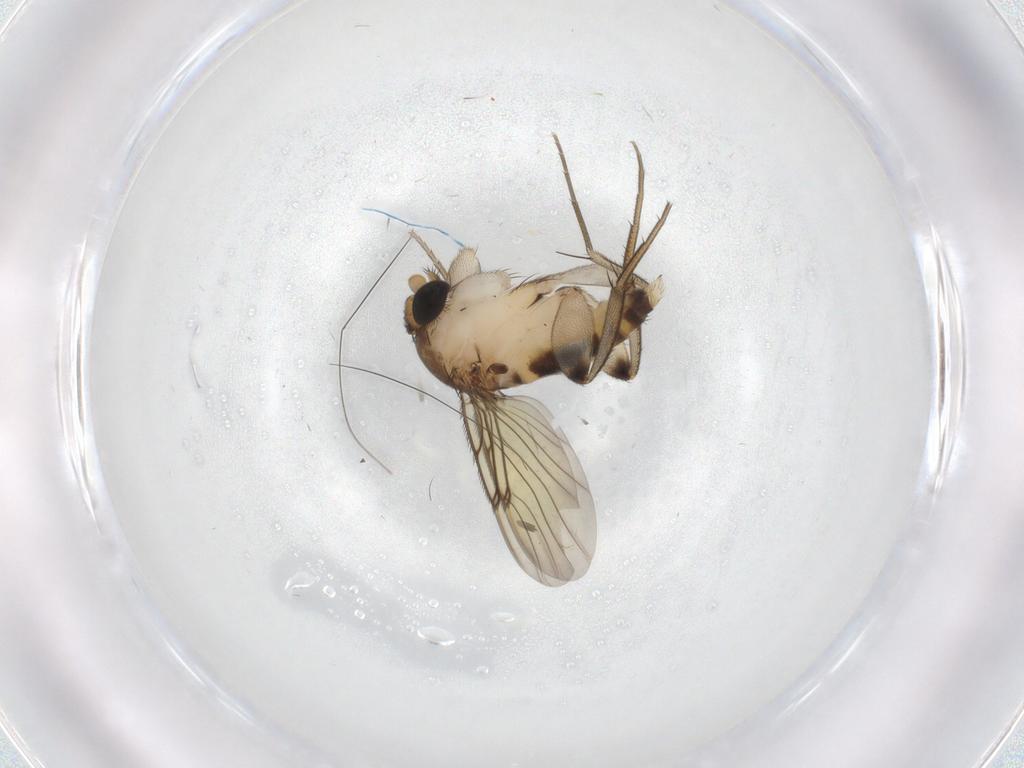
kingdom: Animalia
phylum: Arthropoda
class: Insecta
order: Diptera
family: Phoridae
